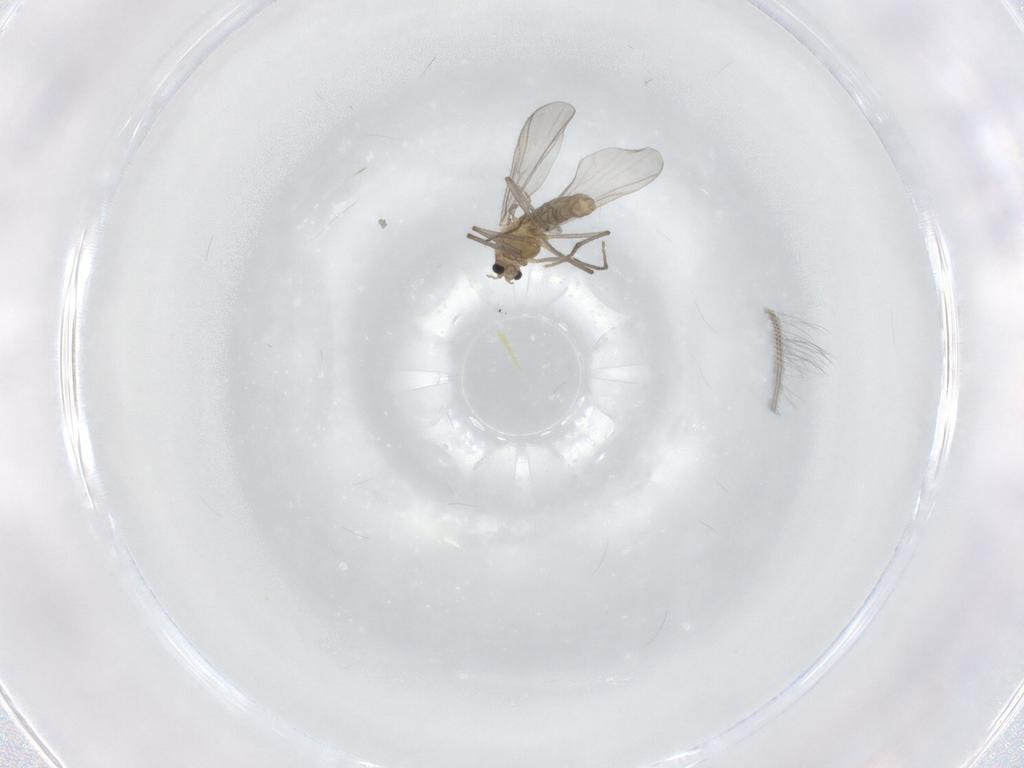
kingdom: Animalia
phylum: Arthropoda
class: Insecta
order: Diptera
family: Chironomidae
